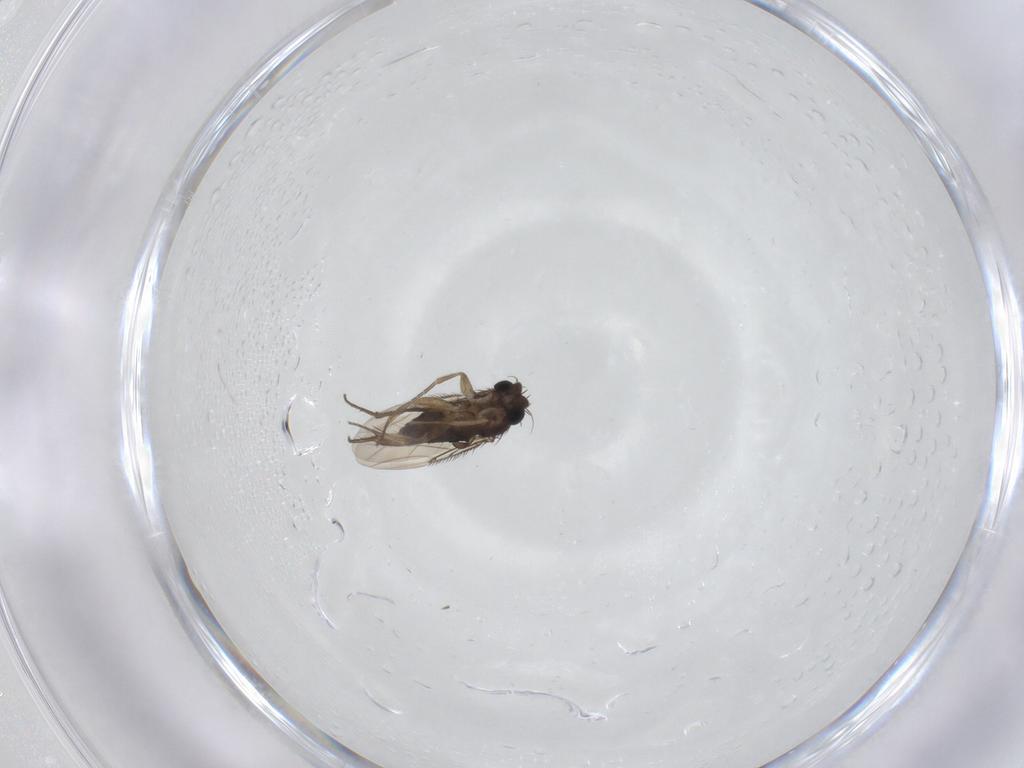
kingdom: Animalia
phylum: Arthropoda
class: Insecta
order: Diptera
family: Phoridae
